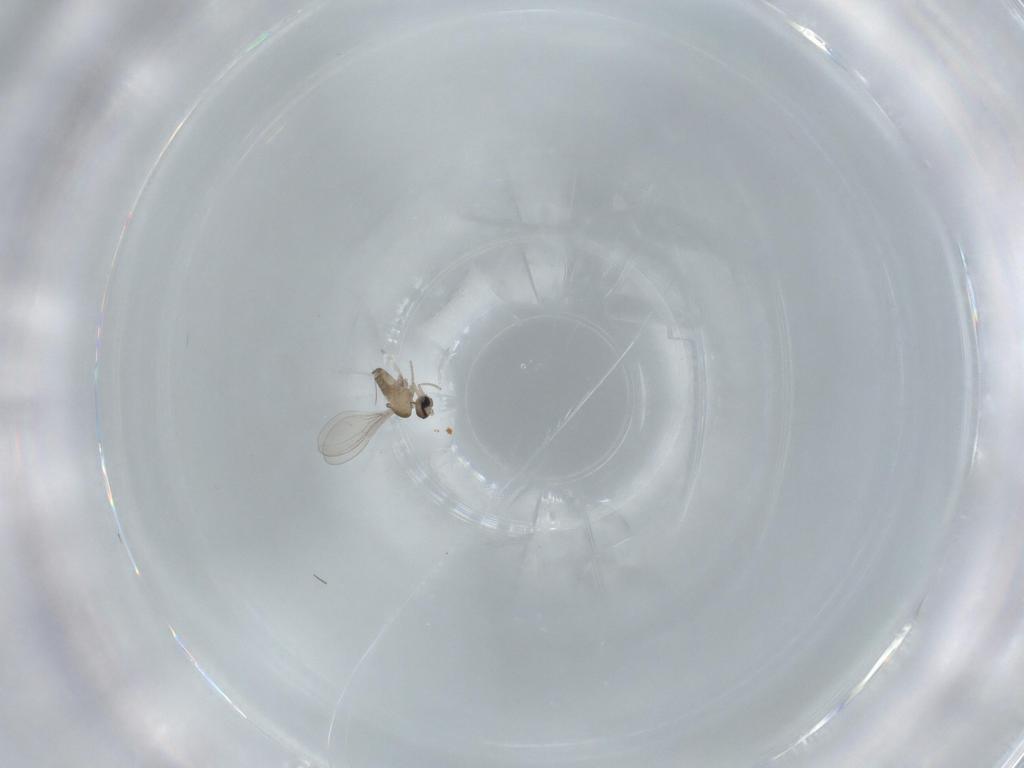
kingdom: Animalia
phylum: Arthropoda
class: Insecta
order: Diptera
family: Cecidomyiidae
